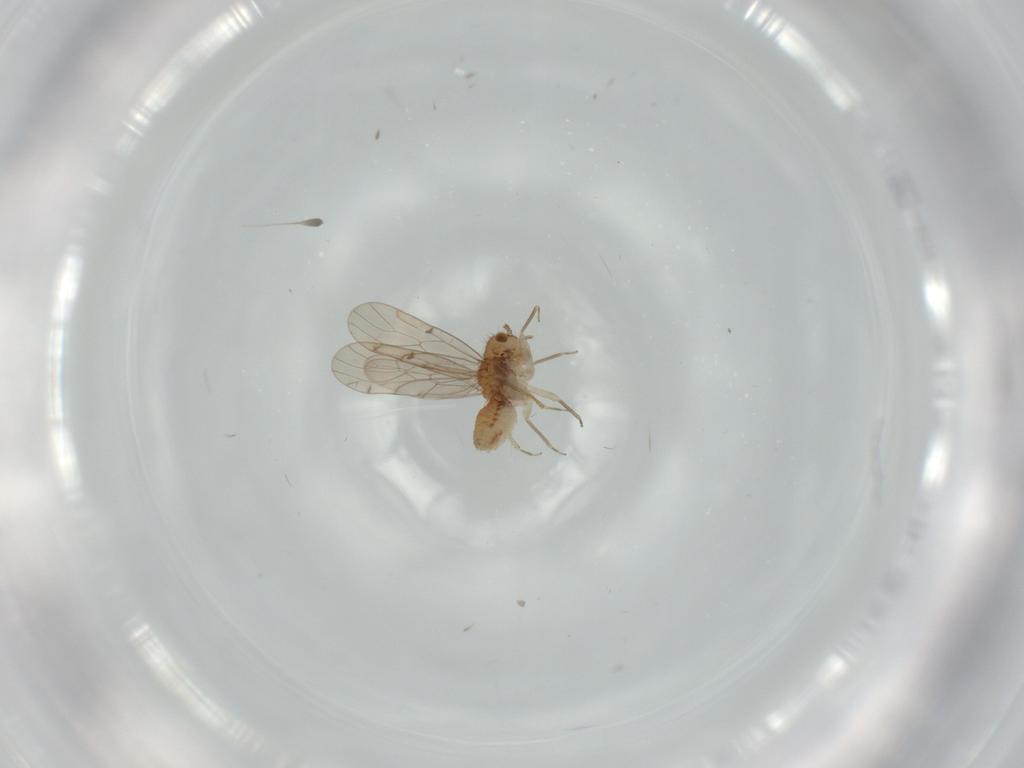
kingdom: Animalia
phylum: Arthropoda
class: Insecta
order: Psocodea
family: Ectopsocidae
